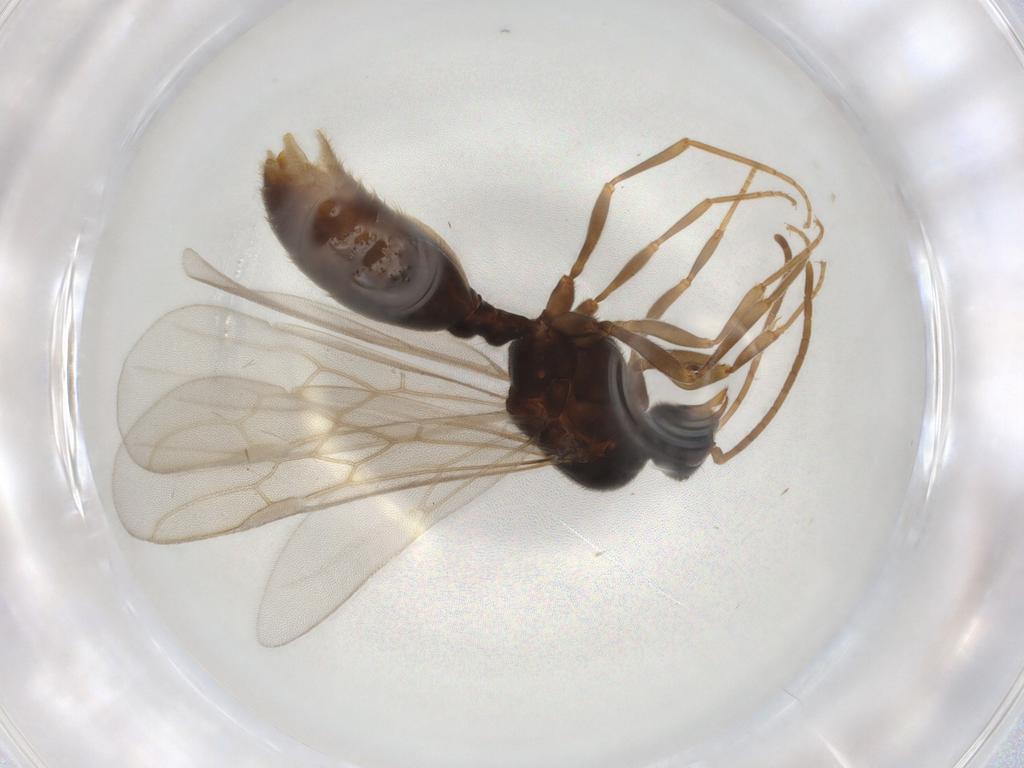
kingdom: Animalia
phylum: Arthropoda
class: Insecta
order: Hymenoptera
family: Formicidae
